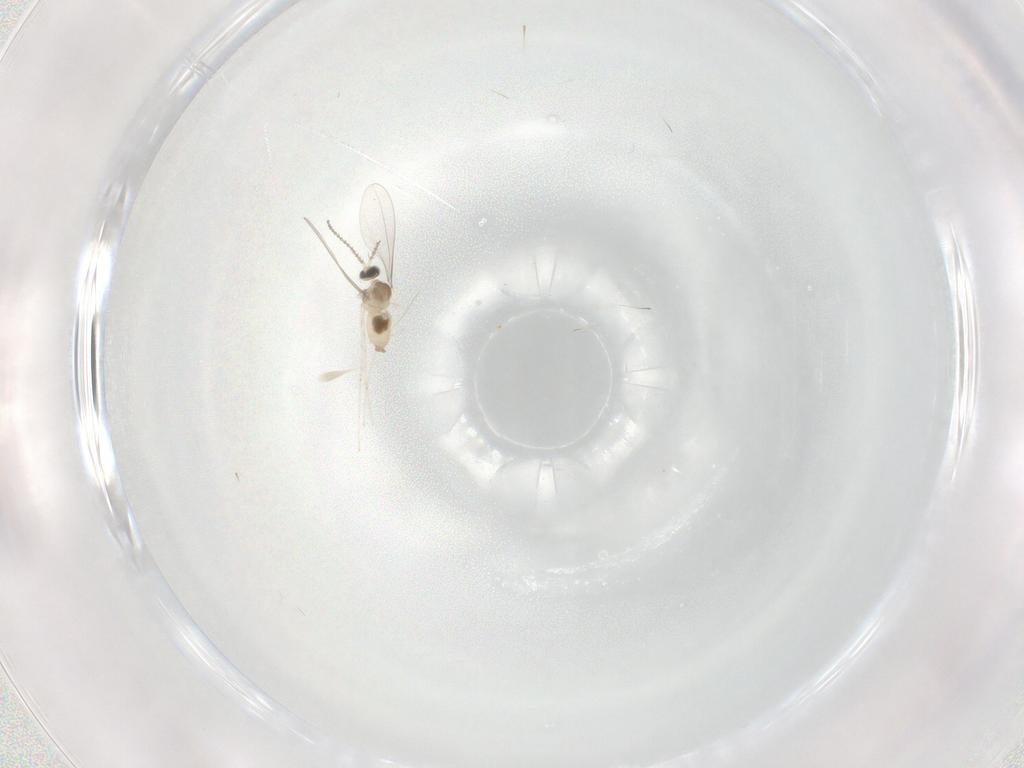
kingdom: Animalia
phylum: Arthropoda
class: Insecta
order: Diptera
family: Cecidomyiidae
